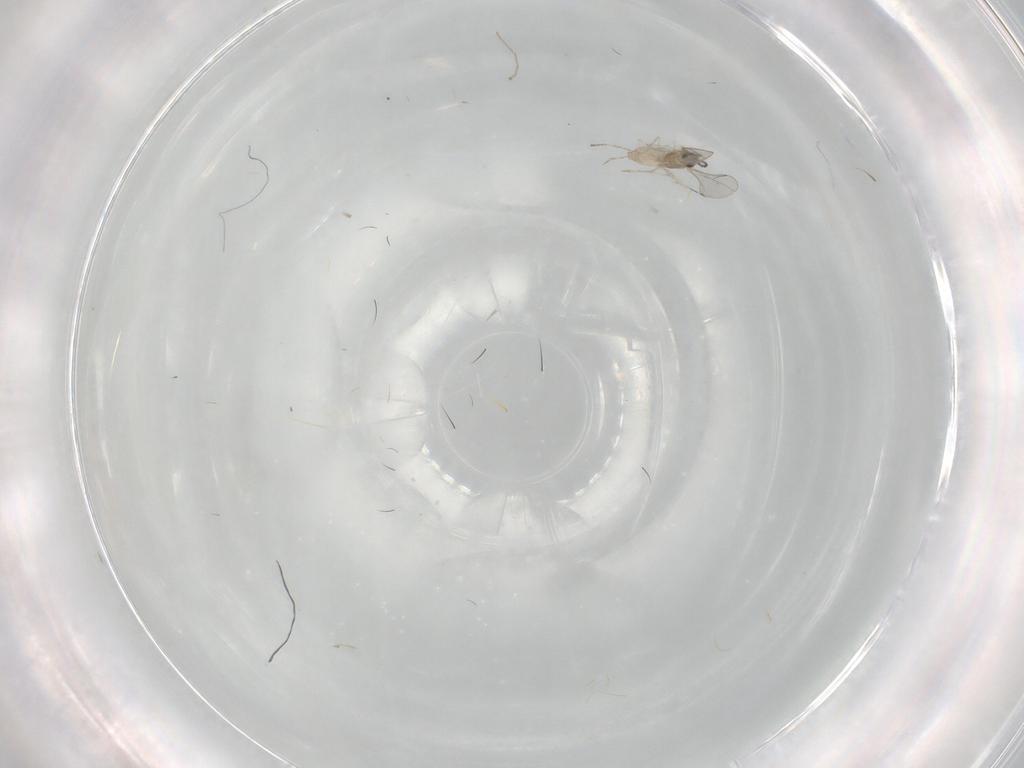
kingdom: Animalia
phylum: Arthropoda
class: Insecta
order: Diptera
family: Cecidomyiidae
